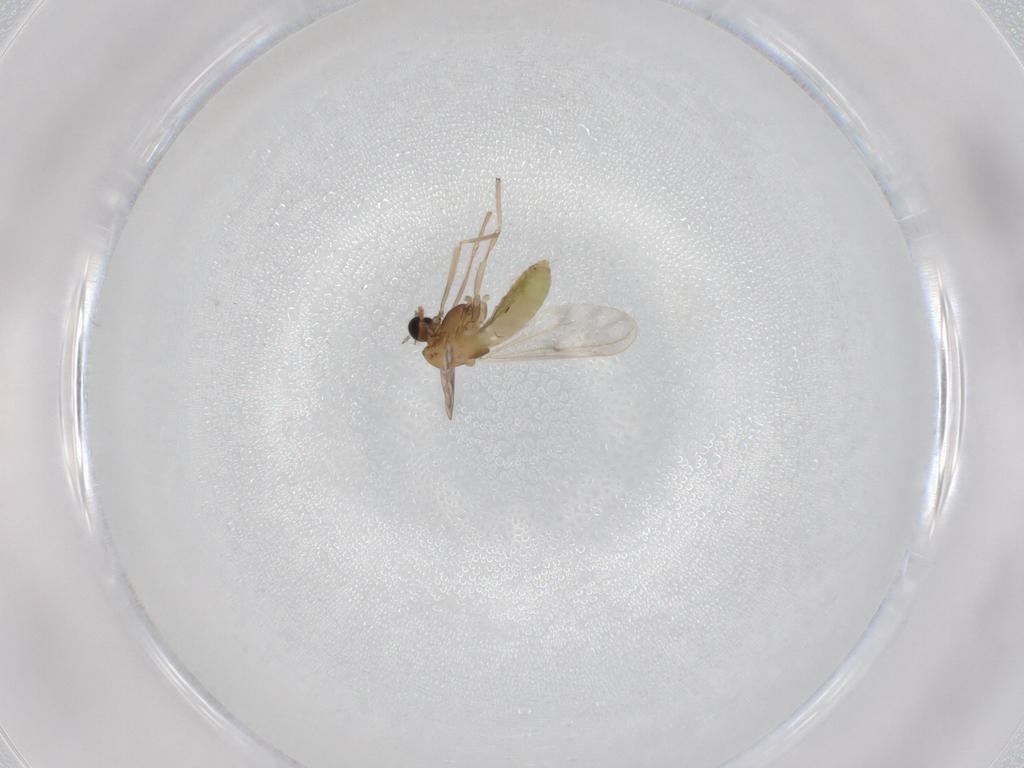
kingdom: Animalia
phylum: Arthropoda
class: Insecta
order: Diptera
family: Chironomidae
